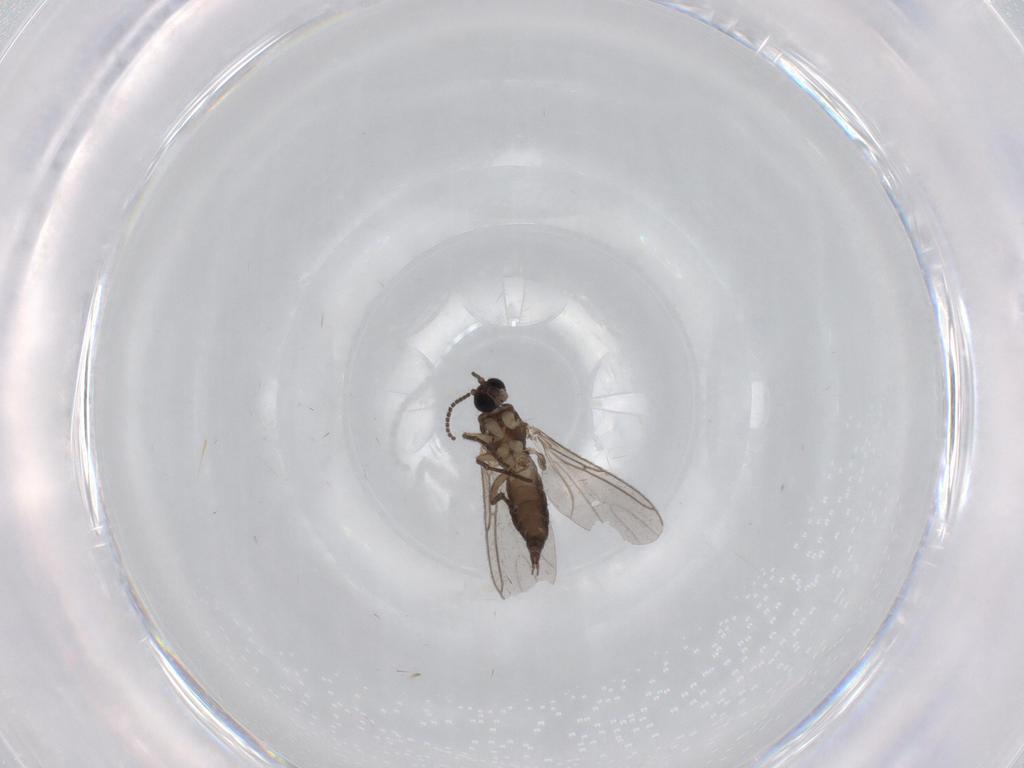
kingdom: Animalia
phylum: Arthropoda
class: Insecta
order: Diptera
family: Sciaridae
